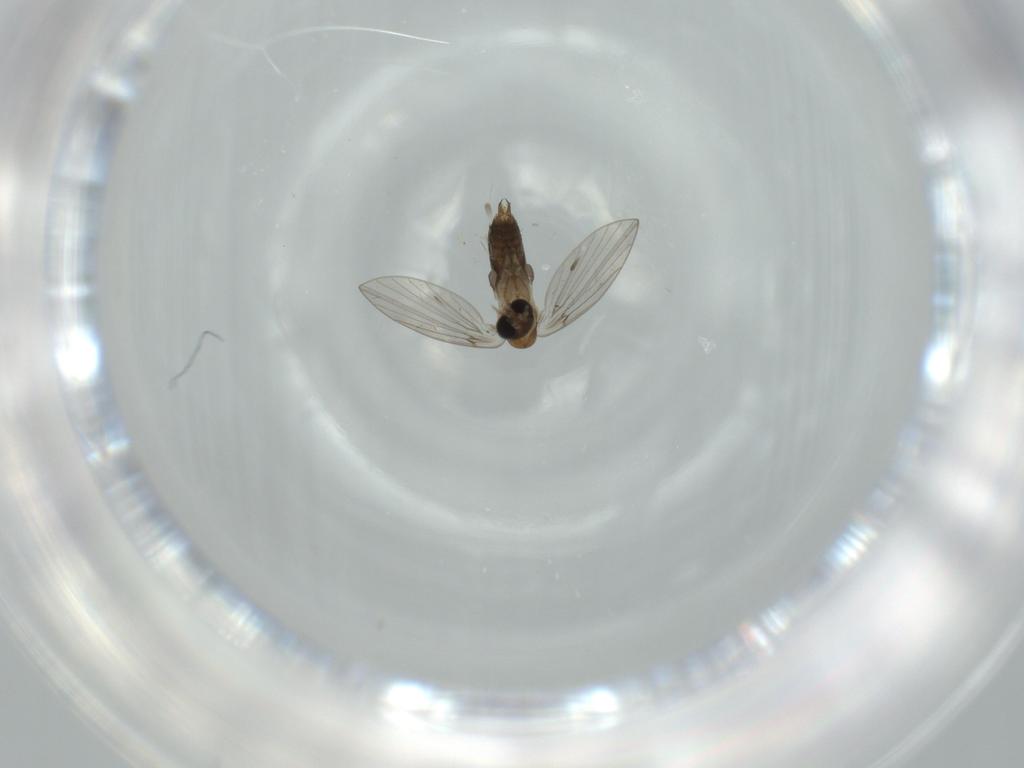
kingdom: Animalia
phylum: Arthropoda
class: Insecta
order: Diptera
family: Psychodidae
